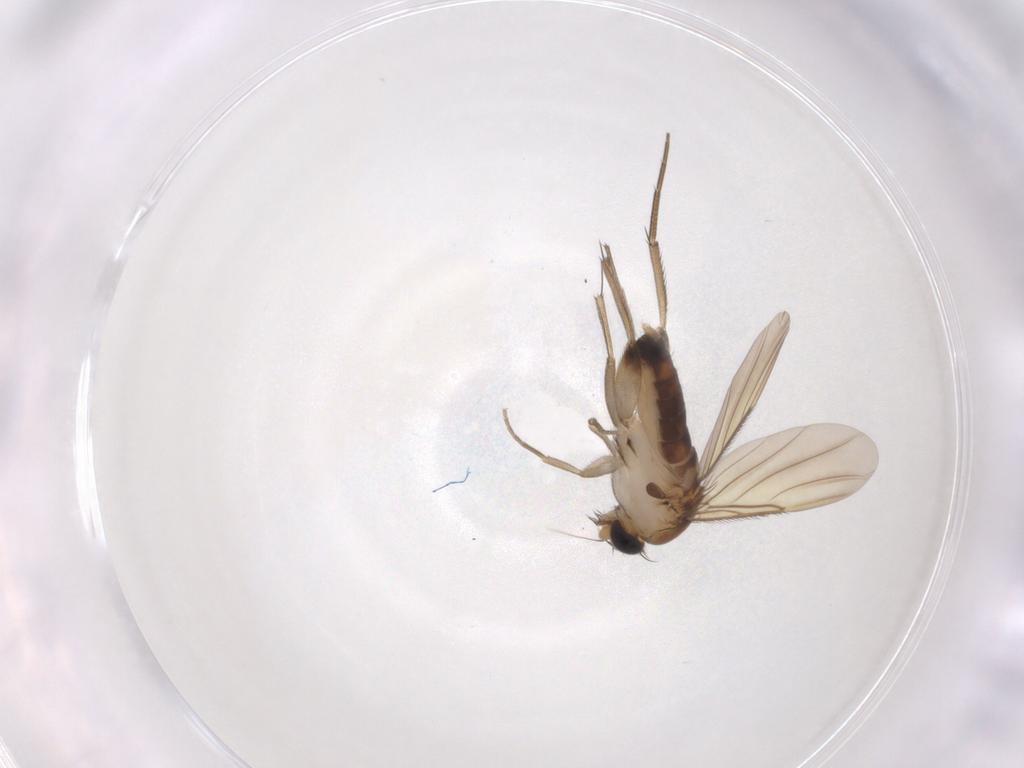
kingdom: Animalia
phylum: Arthropoda
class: Insecta
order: Diptera
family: Phoridae
